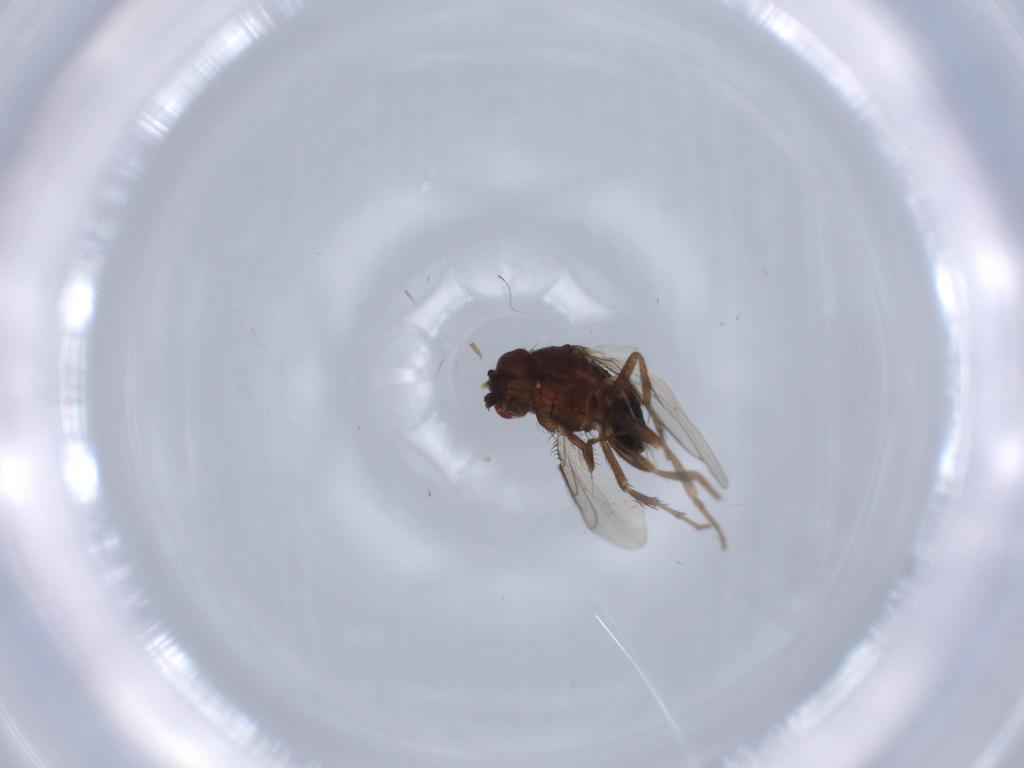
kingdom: Animalia
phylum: Arthropoda
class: Insecta
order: Diptera
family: Sphaeroceridae
